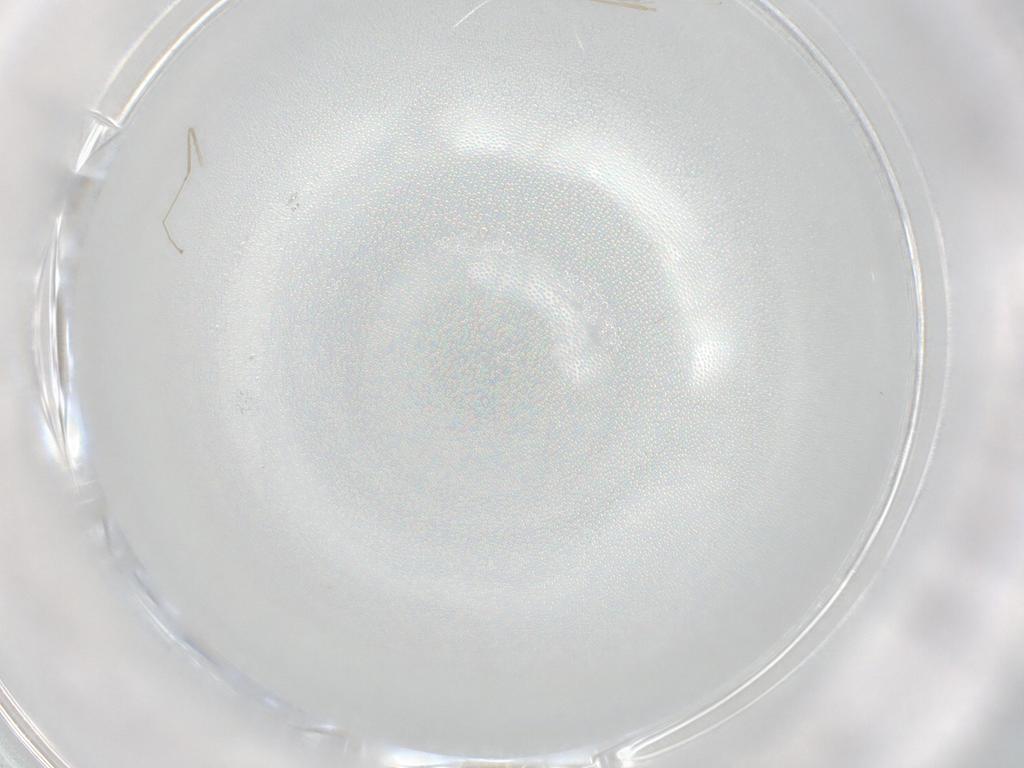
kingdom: Animalia
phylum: Arthropoda
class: Insecta
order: Diptera
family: Cecidomyiidae
